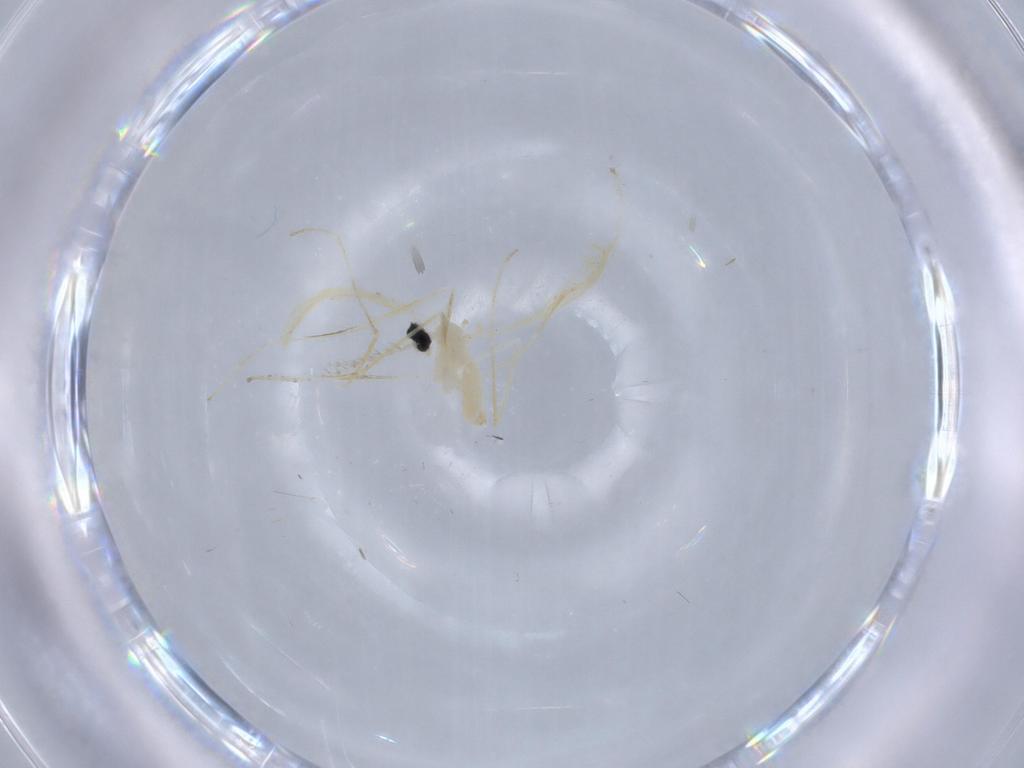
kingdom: Animalia
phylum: Arthropoda
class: Insecta
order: Diptera
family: Cecidomyiidae
